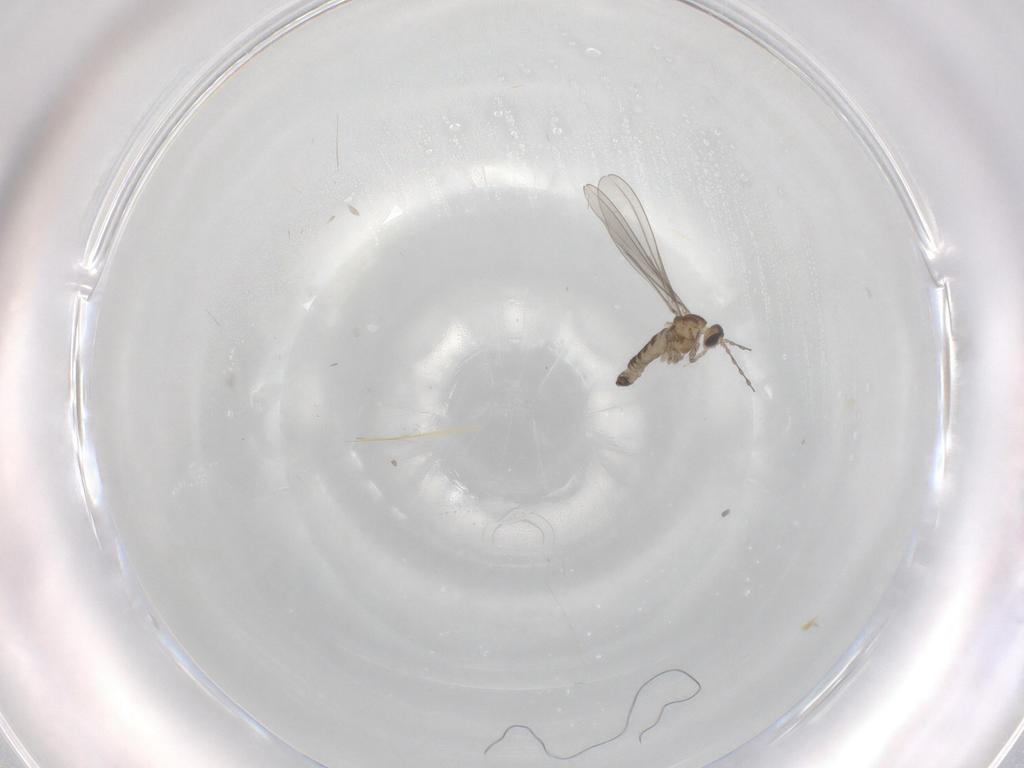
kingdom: Animalia
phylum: Arthropoda
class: Insecta
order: Diptera
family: Cecidomyiidae
